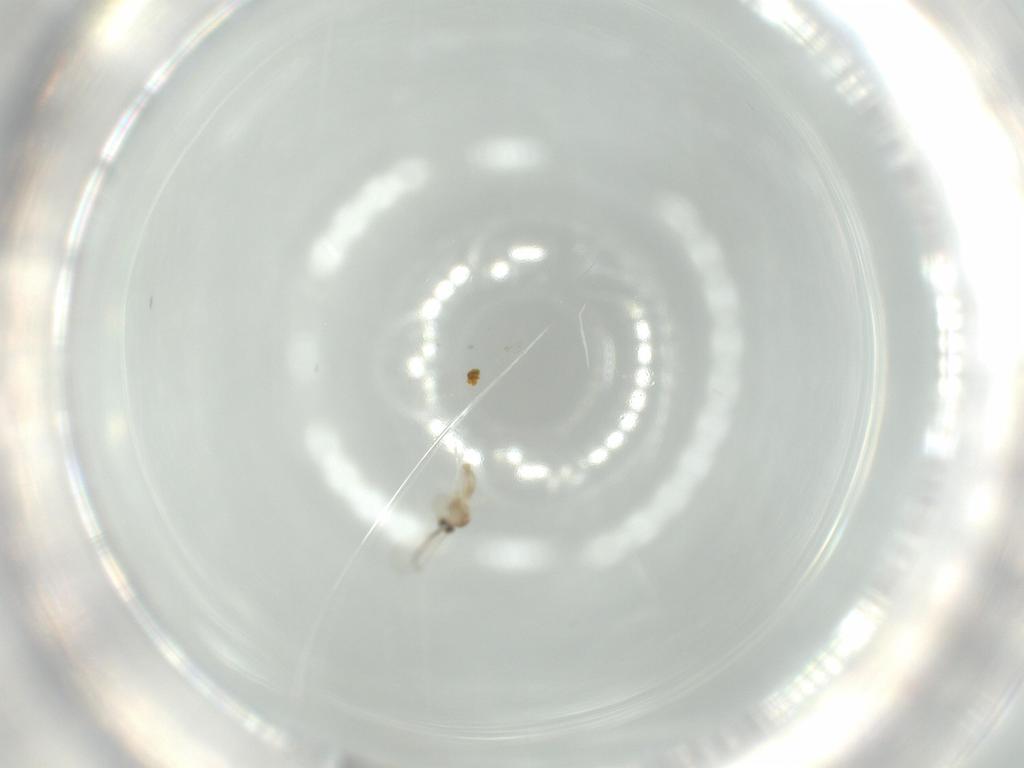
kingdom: Animalia
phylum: Arthropoda
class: Insecta
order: Diptera
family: Cecidomyiidae
